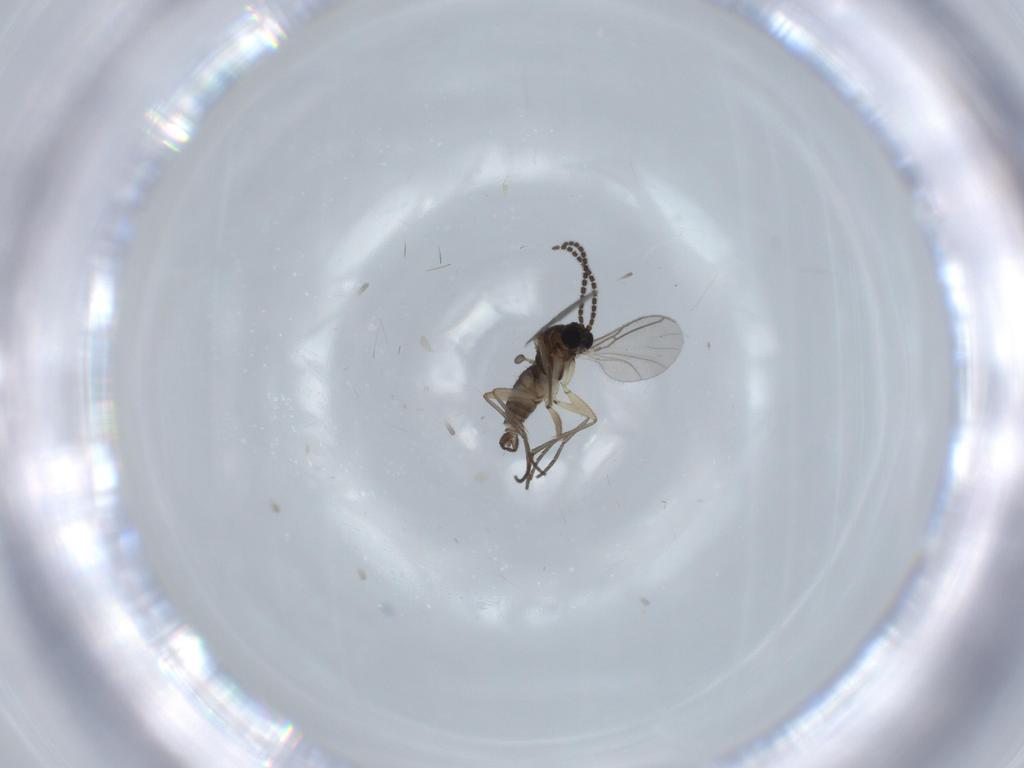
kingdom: Animalia
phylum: Arthropoda
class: Insecta
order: Diptera
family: Sciaridae
